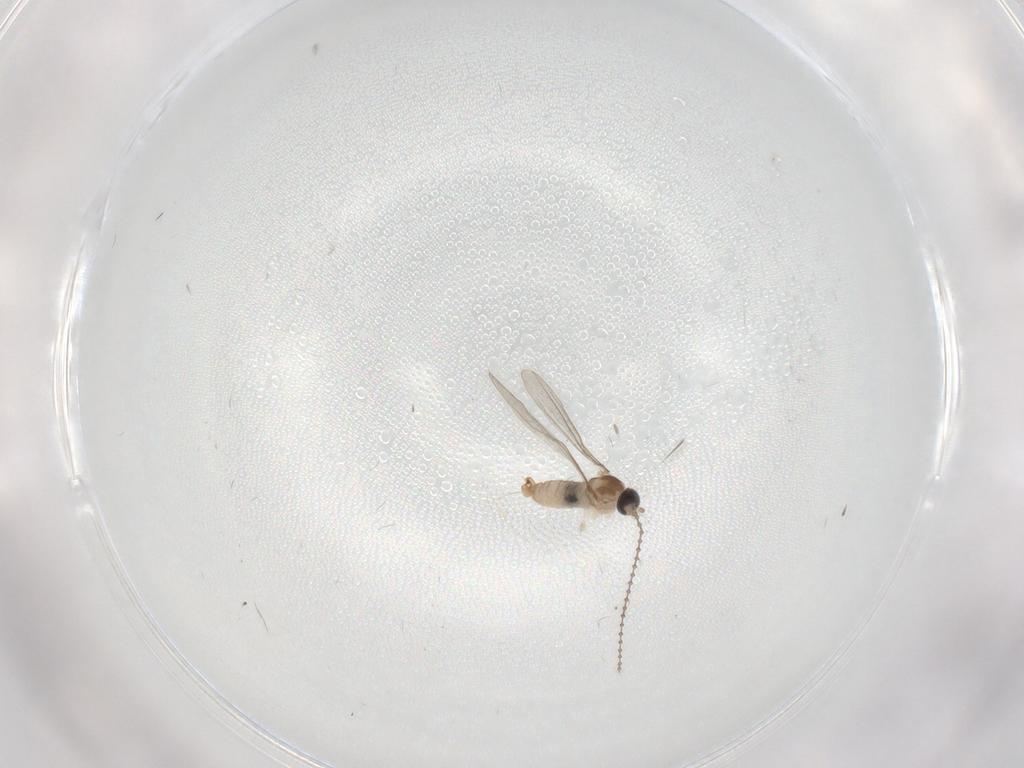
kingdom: Animalia
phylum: Arthropoda
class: Insecta
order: Diptera
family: Cecidomyiidae
